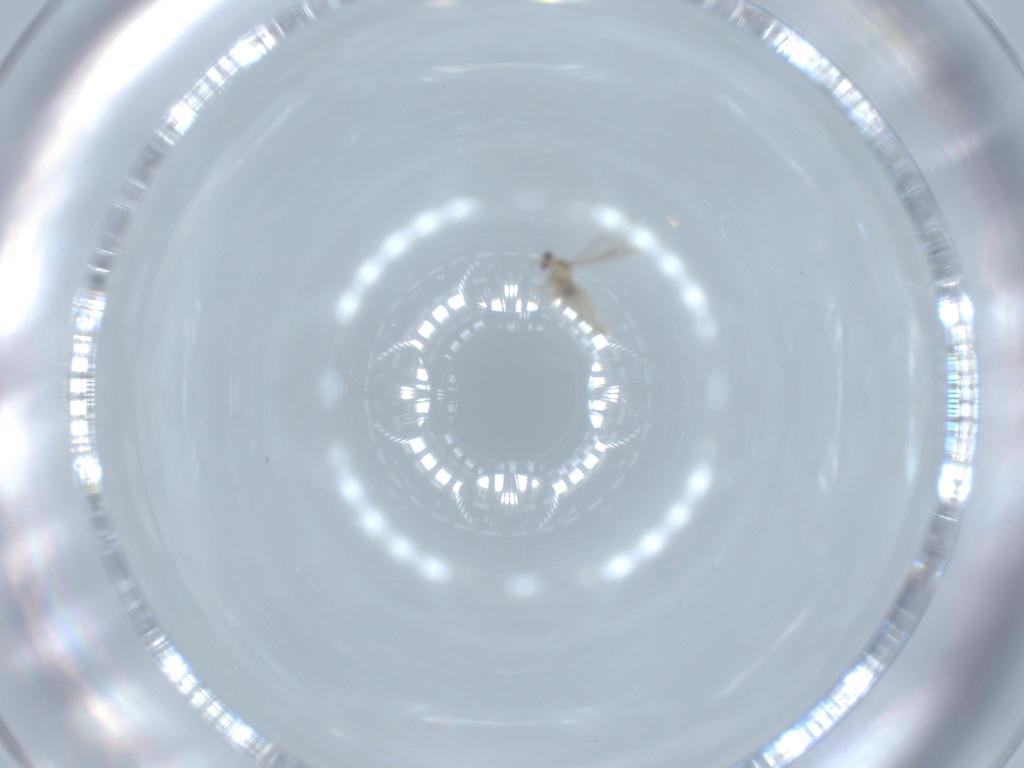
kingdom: Animalia
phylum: Arthropoda
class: Insecta
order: Diptera
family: Cecidomyiidae
